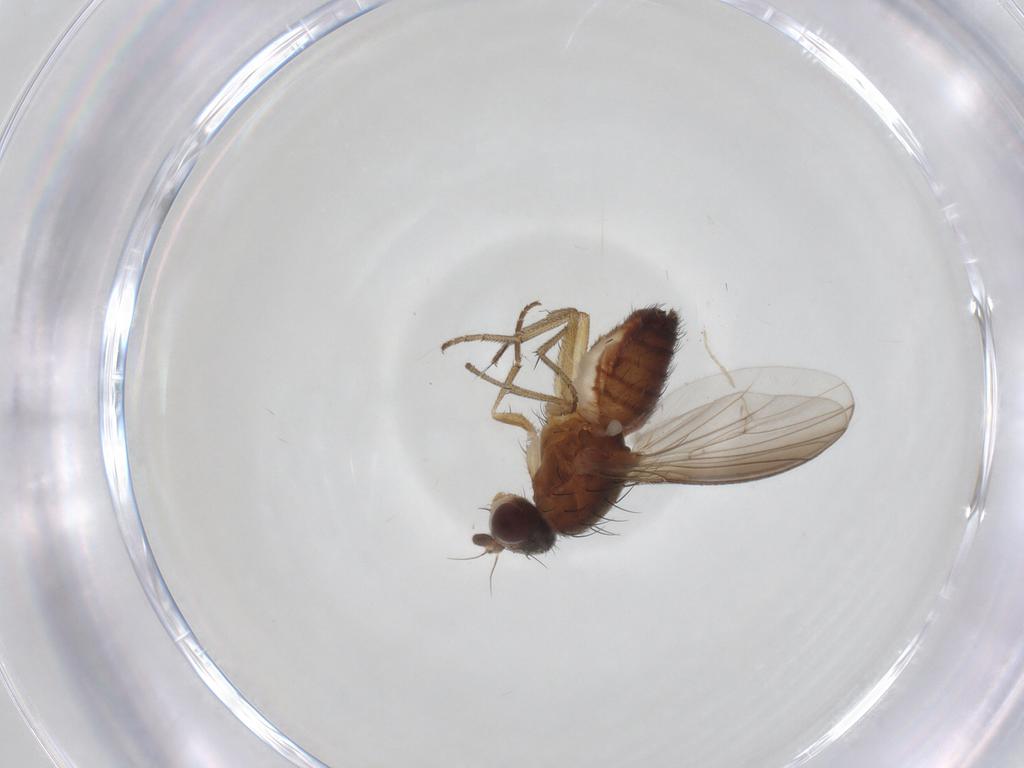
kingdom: Animalia
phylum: Arthropoda
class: Insecta
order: Diptera
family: Heleomyzidae
